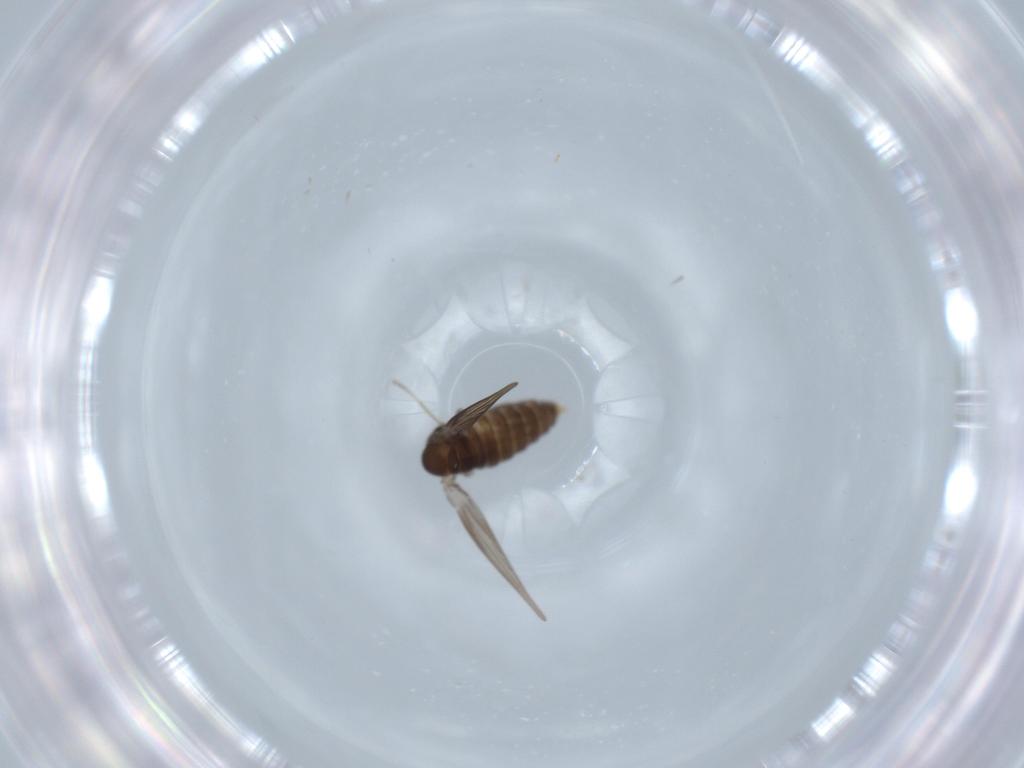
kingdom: Animalia
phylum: Arthropoda
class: Insecta
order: Diptera
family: Psychodidae
